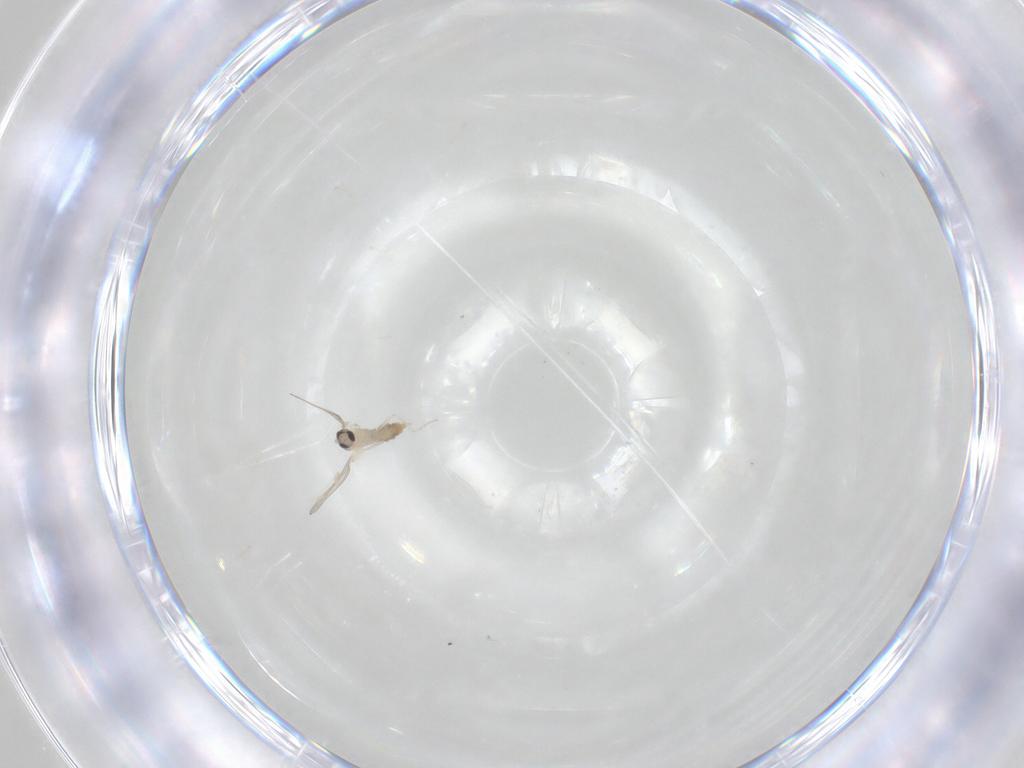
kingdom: Animalia
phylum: Arthropoda
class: Insecta
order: Diptera
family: Cecidomyiidae
